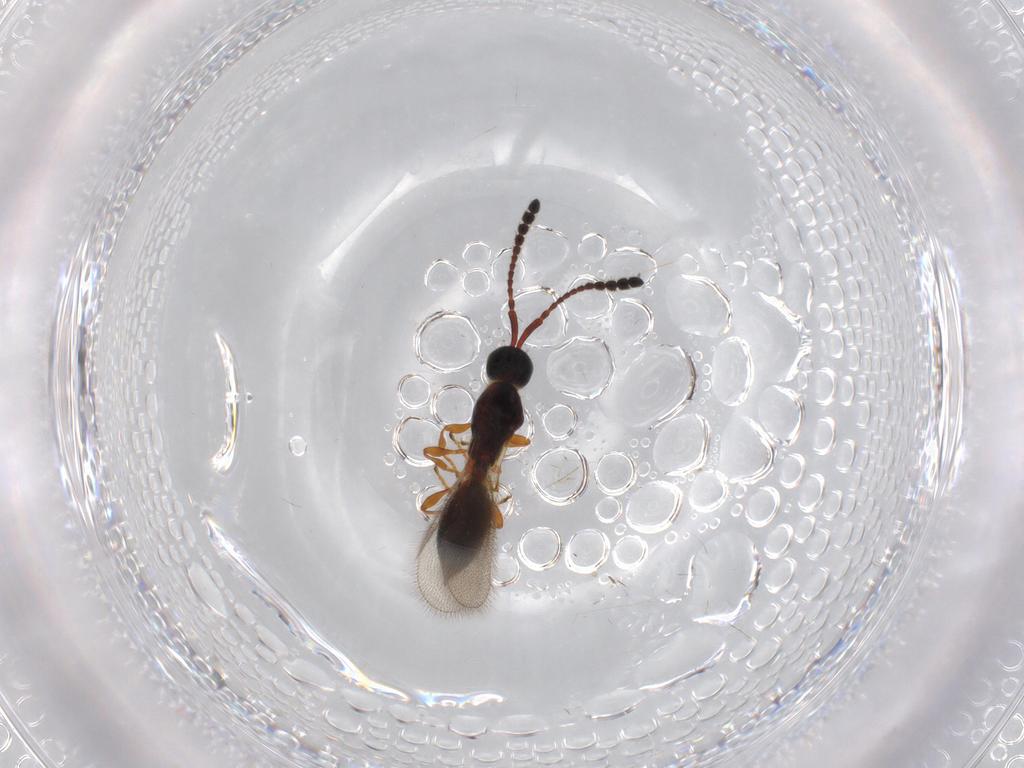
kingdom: Animalia
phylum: Arthropoda
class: Insecta
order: Hymenoptera
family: Diapriidae
